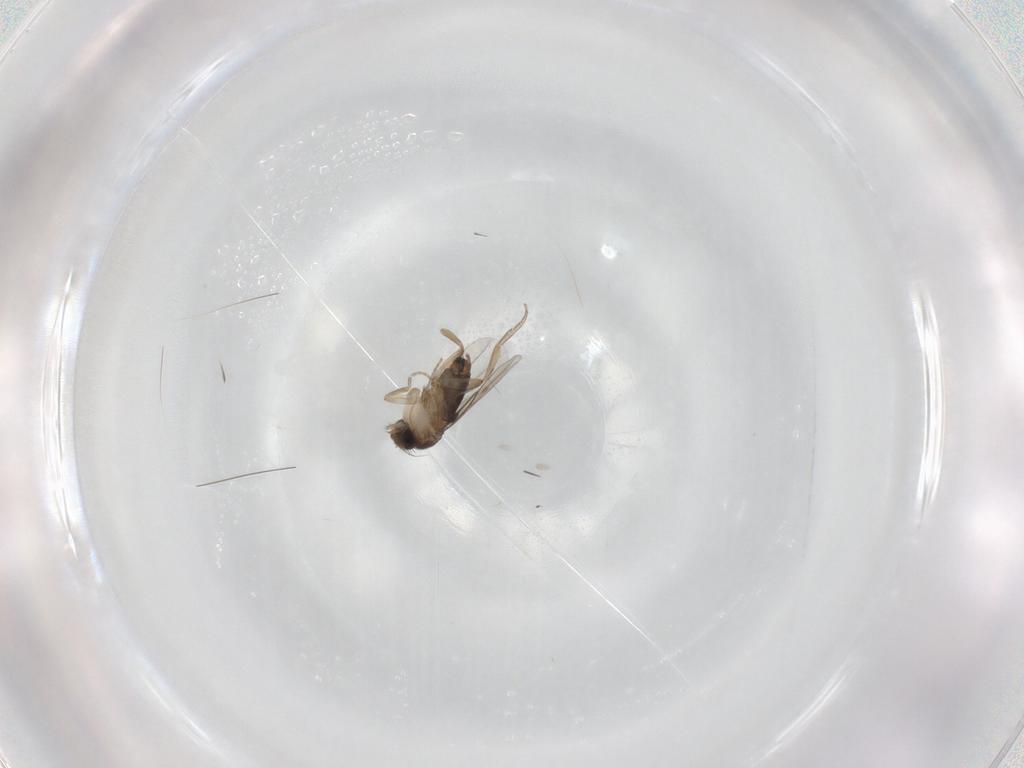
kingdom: Animalia
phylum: Arthropoda
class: Insecta
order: Diptera
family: Phoridae
